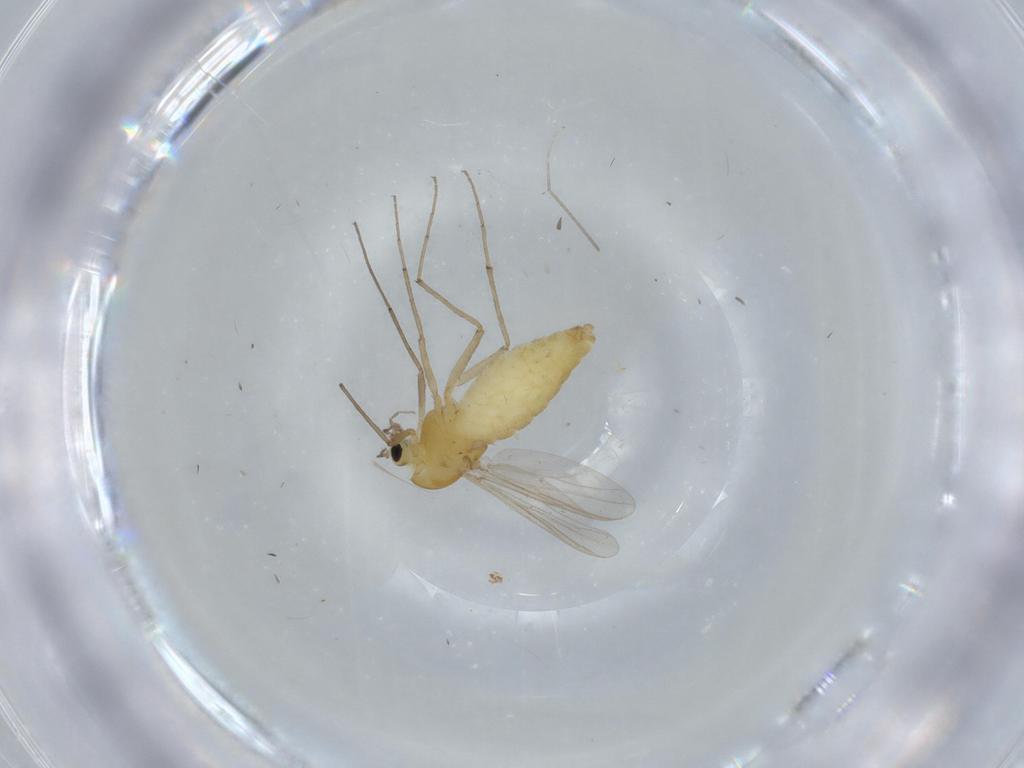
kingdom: Animalia
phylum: Arthropoda
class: Insecta
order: Diptera
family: Chironomidae
